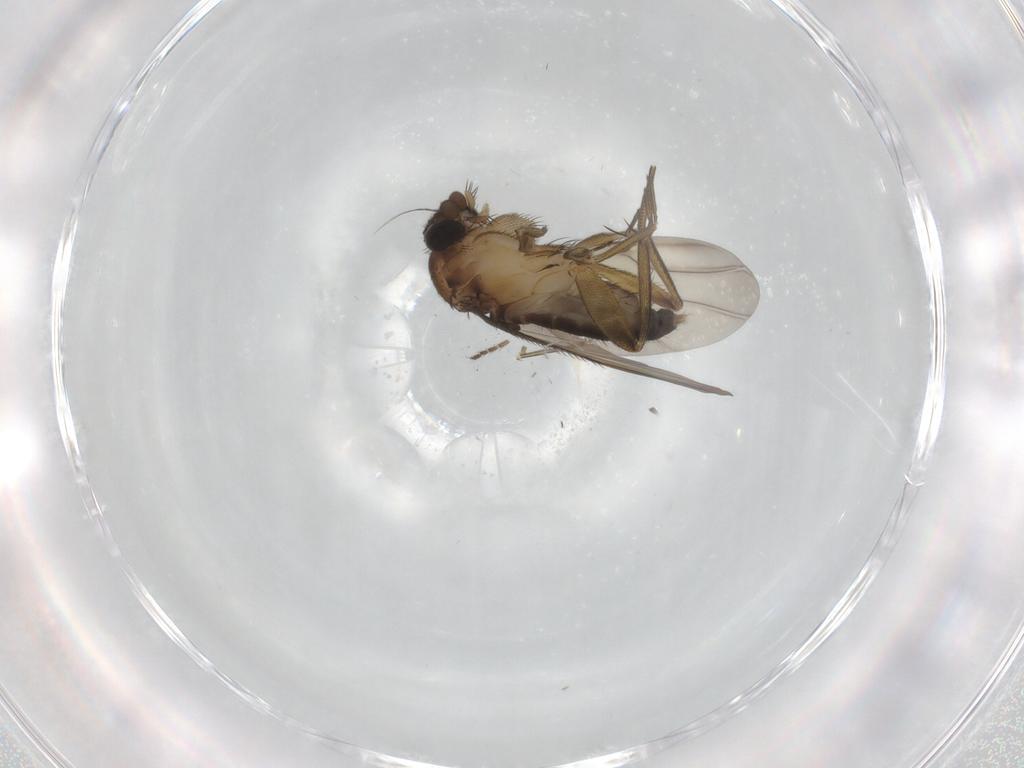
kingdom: Animalia
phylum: Arthropoda
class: Insecta
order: Diptera
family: Phoridae
